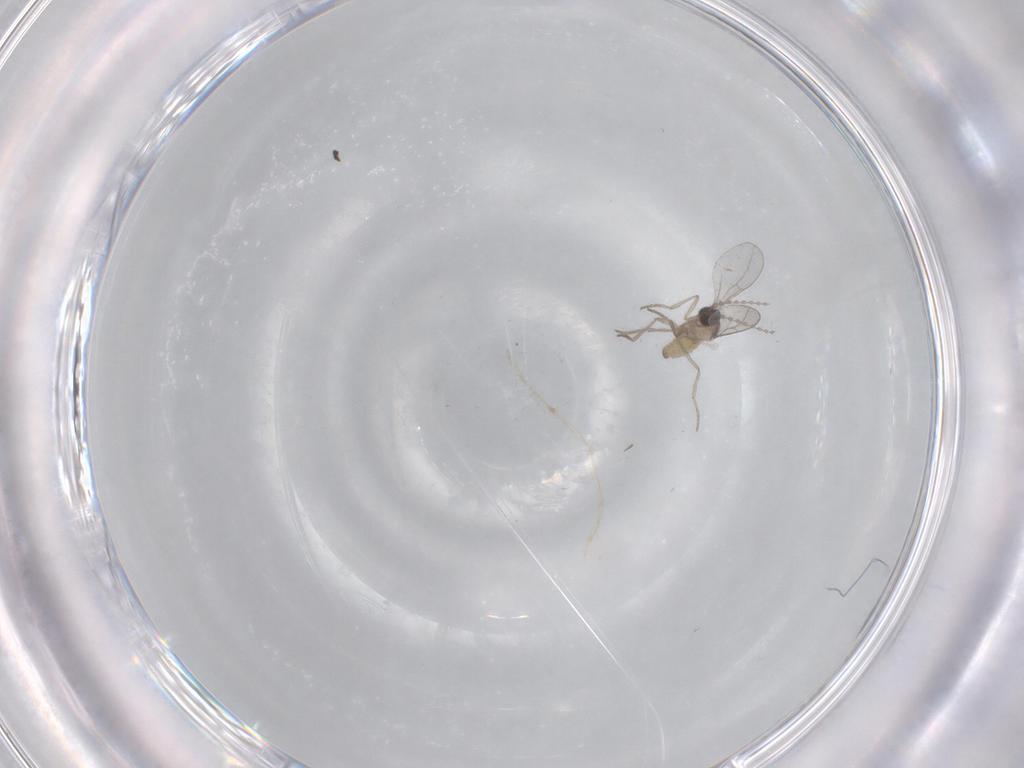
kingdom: Animalia
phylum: Arthropoda
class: Insecta
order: Diptera
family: Cecidomyiidae
